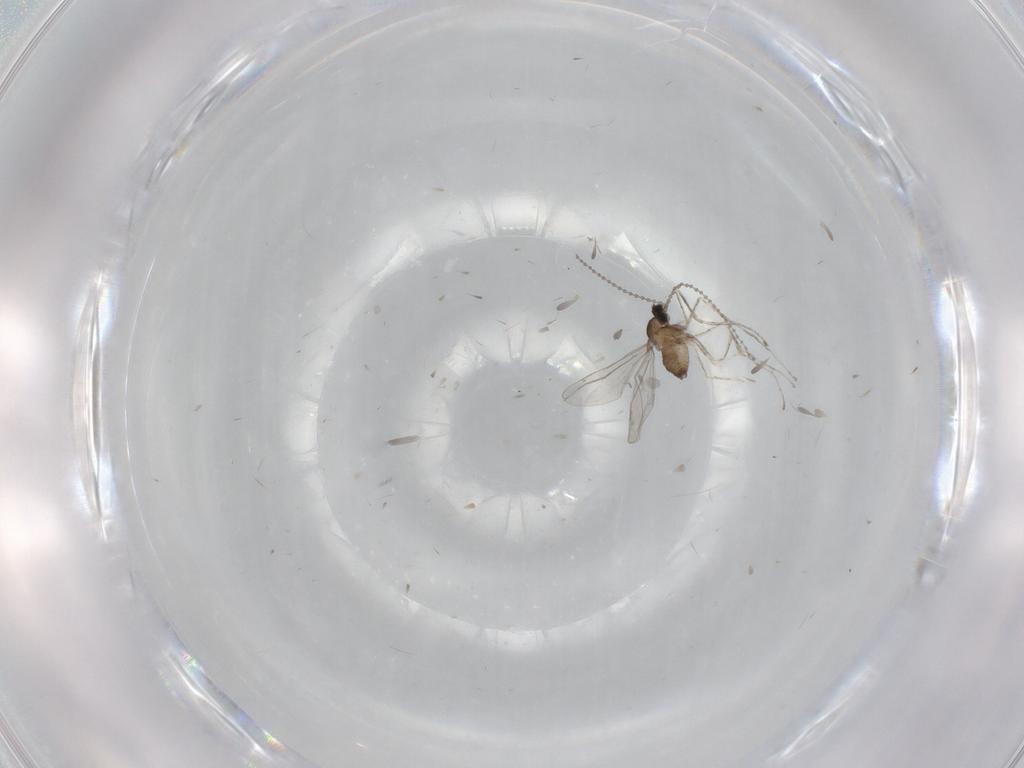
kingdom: Animalia
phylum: Arthropoda
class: Insecta
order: Diptera
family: Cecidomyiidae
